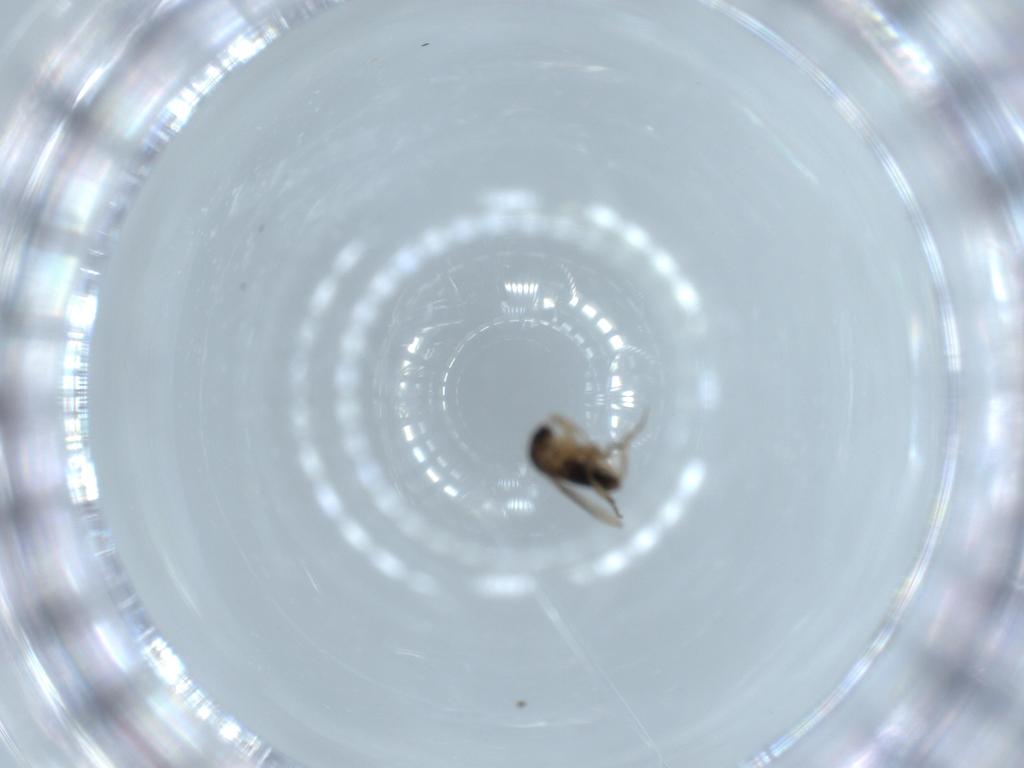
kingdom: Animalia
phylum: Arthropoda
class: Insecta
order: Diptera
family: Phoridae
